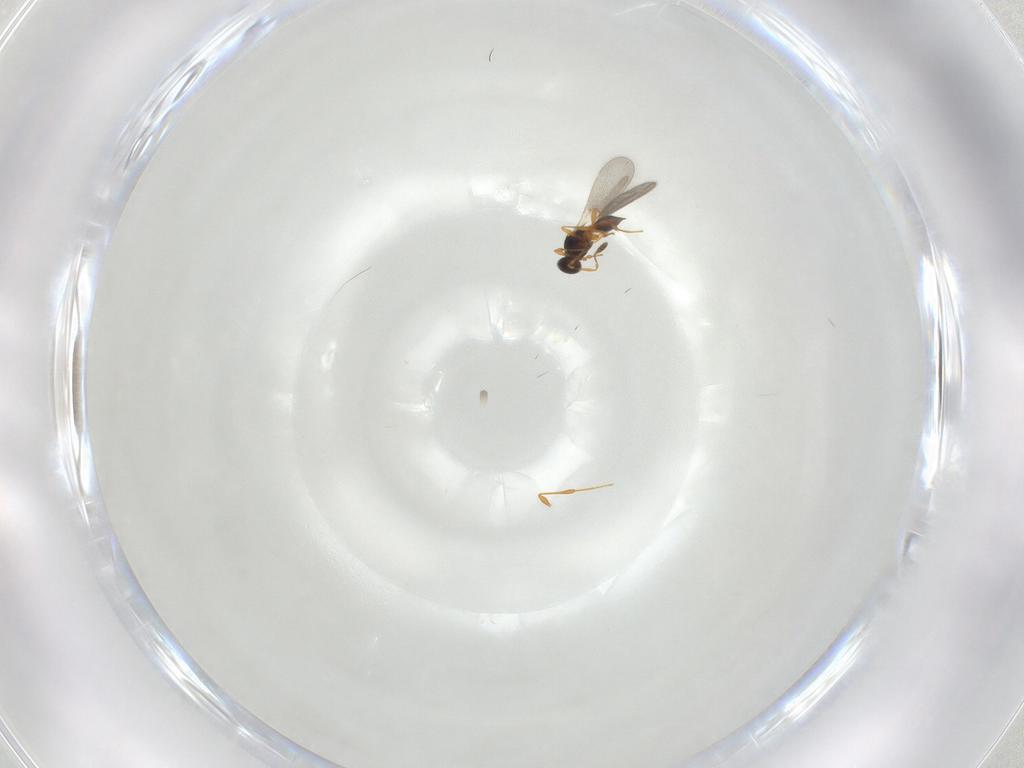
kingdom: Animalia
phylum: Arthropoda
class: Insecta
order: Hymenoptera
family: Platygastridae
